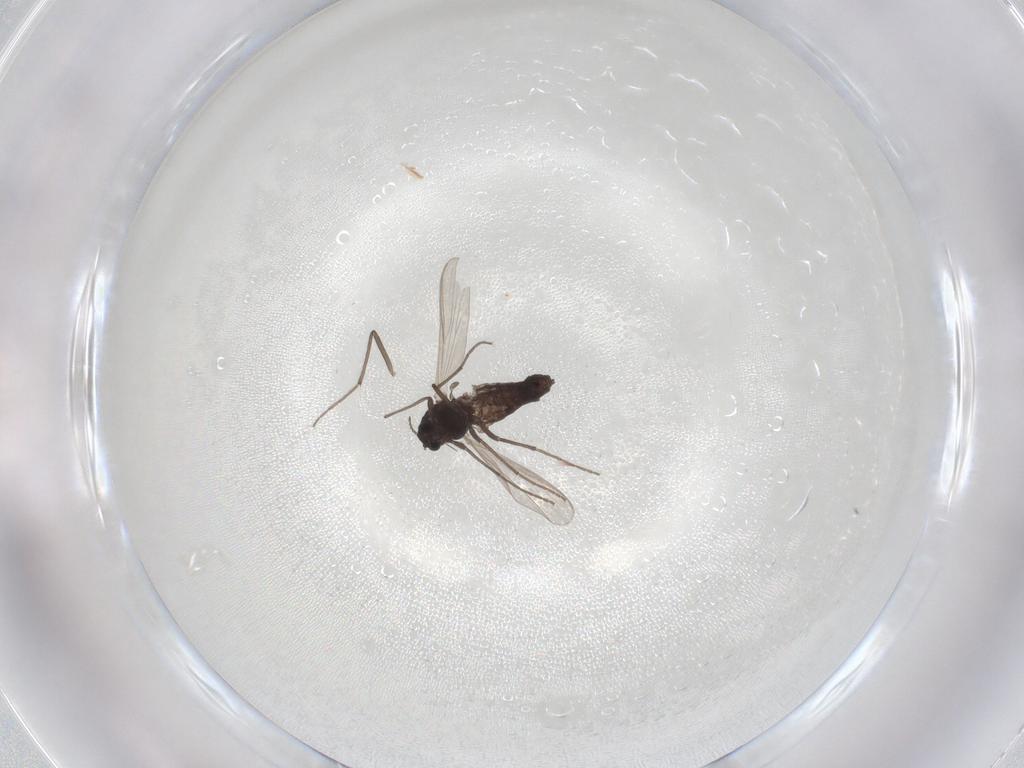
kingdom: Animalia
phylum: Arthropoda
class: Insecta
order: Diptera
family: Chironomidae
